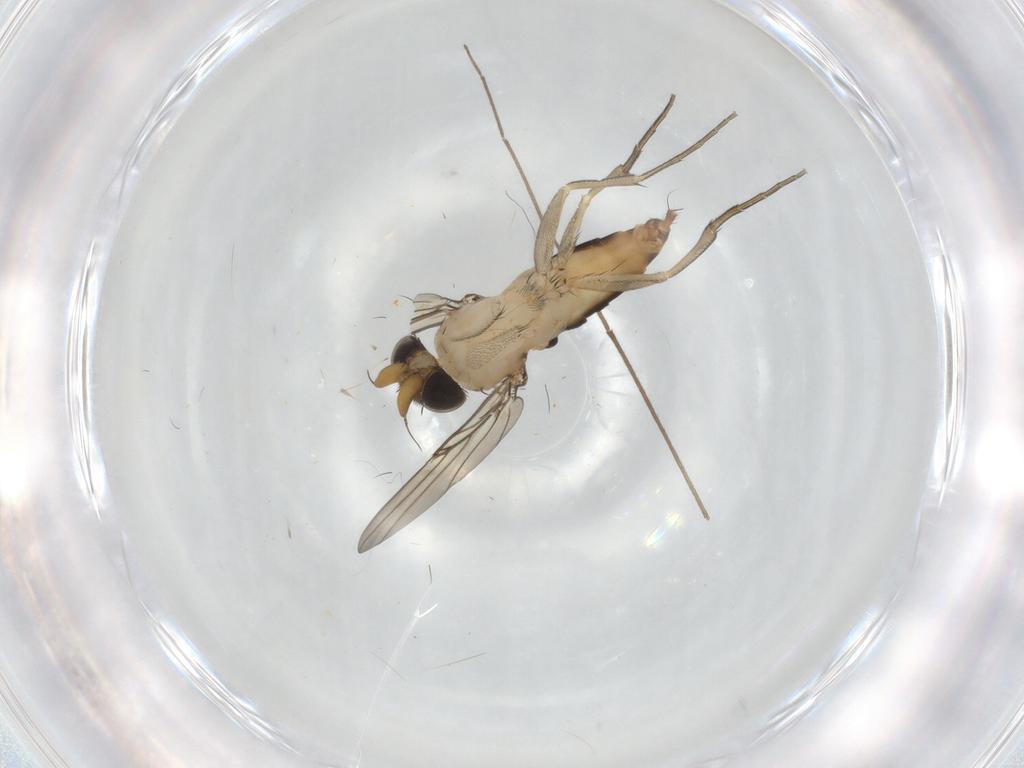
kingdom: Animalia
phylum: Arthropoda
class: Insecta
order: Diptera
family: Phoridae
